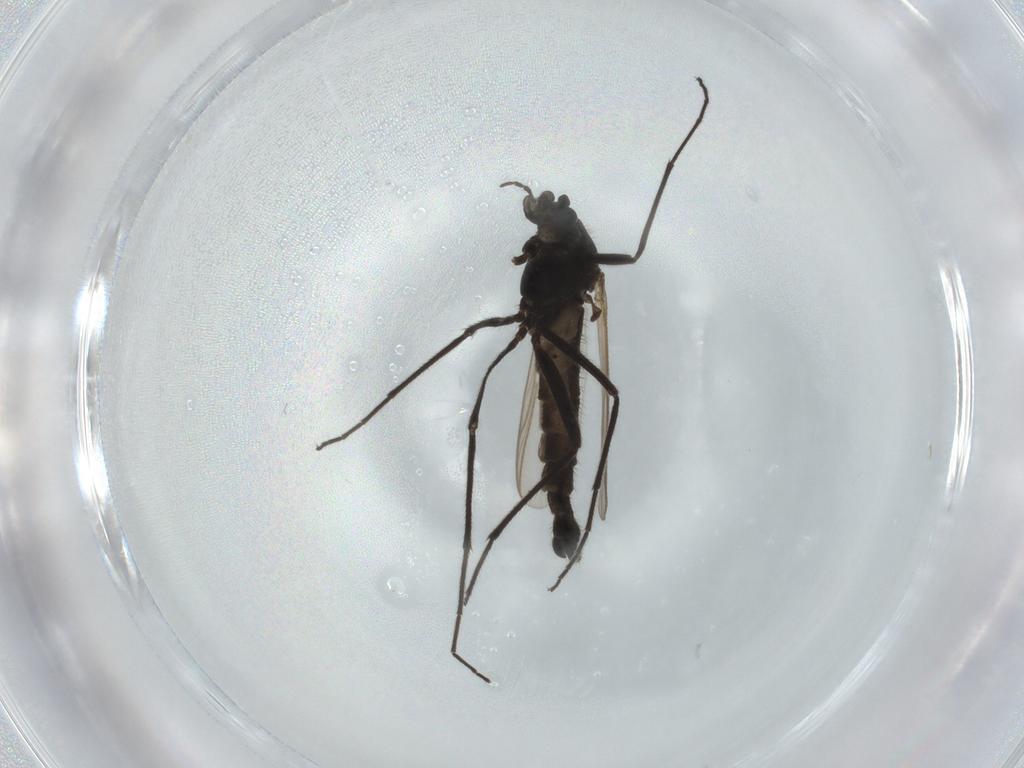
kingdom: Animalia
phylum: Arthropoda
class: Insecta
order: Diptera
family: Chironomidae
